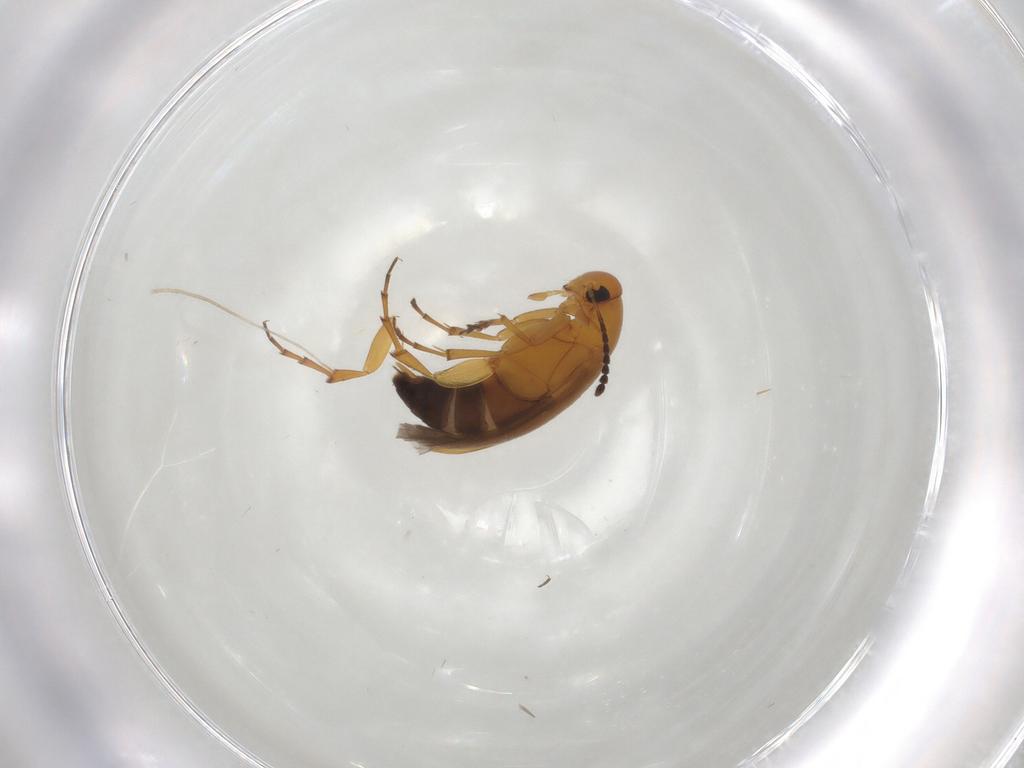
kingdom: Animalia
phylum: Arthropoda
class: Insecta
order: Coleoptera
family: Scraptiidae
